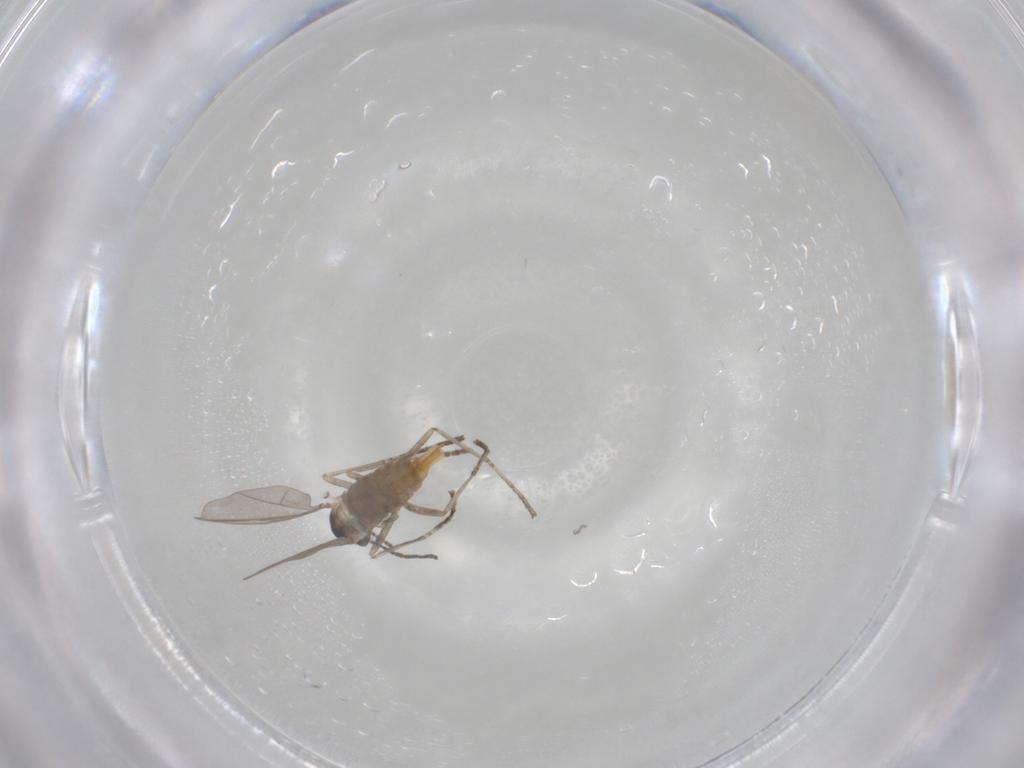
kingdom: Animalia
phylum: Arthropoda
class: Insecta
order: Diptera
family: Cecidomyiidae
